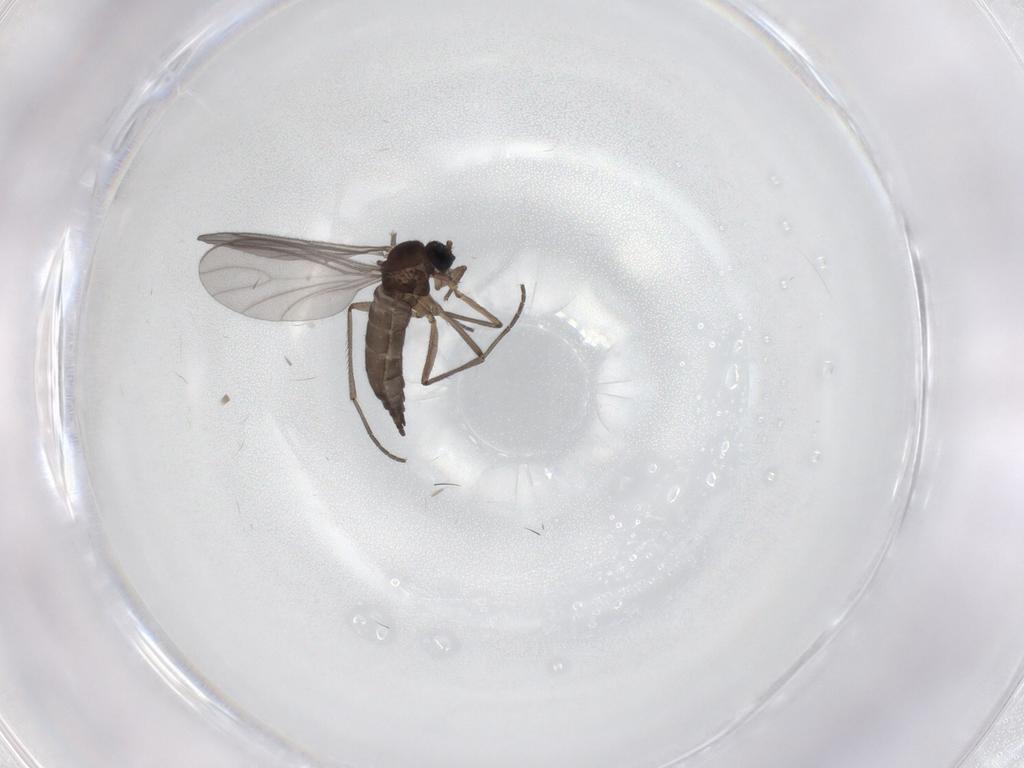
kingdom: Animalia
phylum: Arthropoda
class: Insecta
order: Diptera
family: Sciaridae
